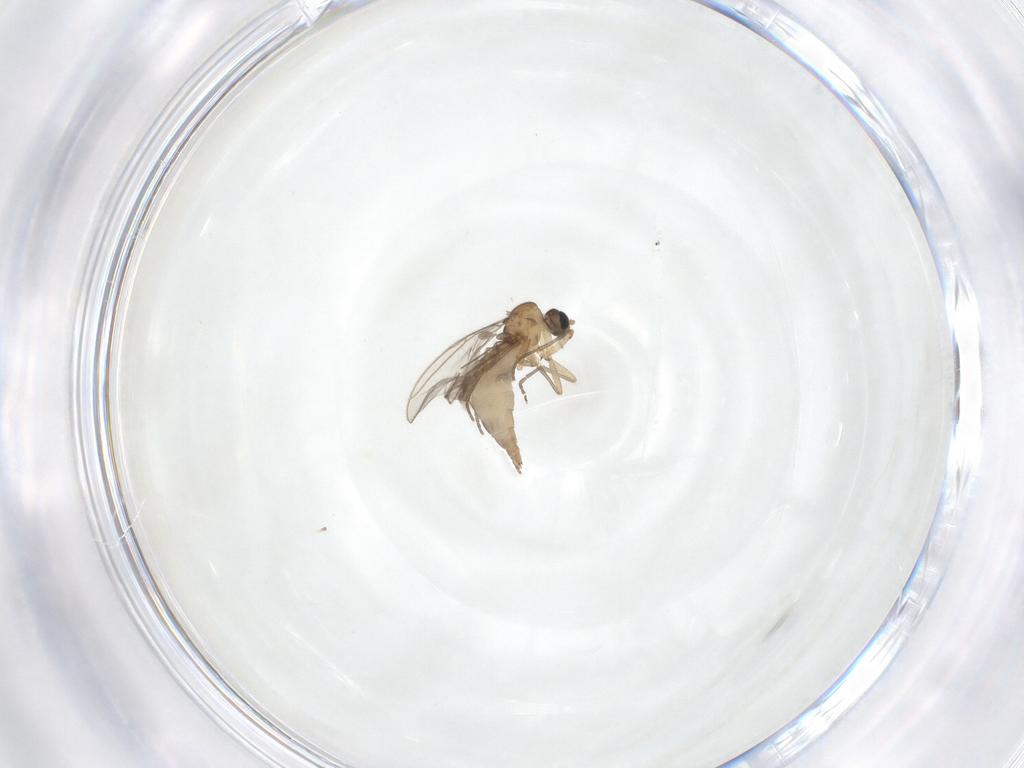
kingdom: Animalia
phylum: Arthropoda
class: Insecta
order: Diptera
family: Sciaridae
